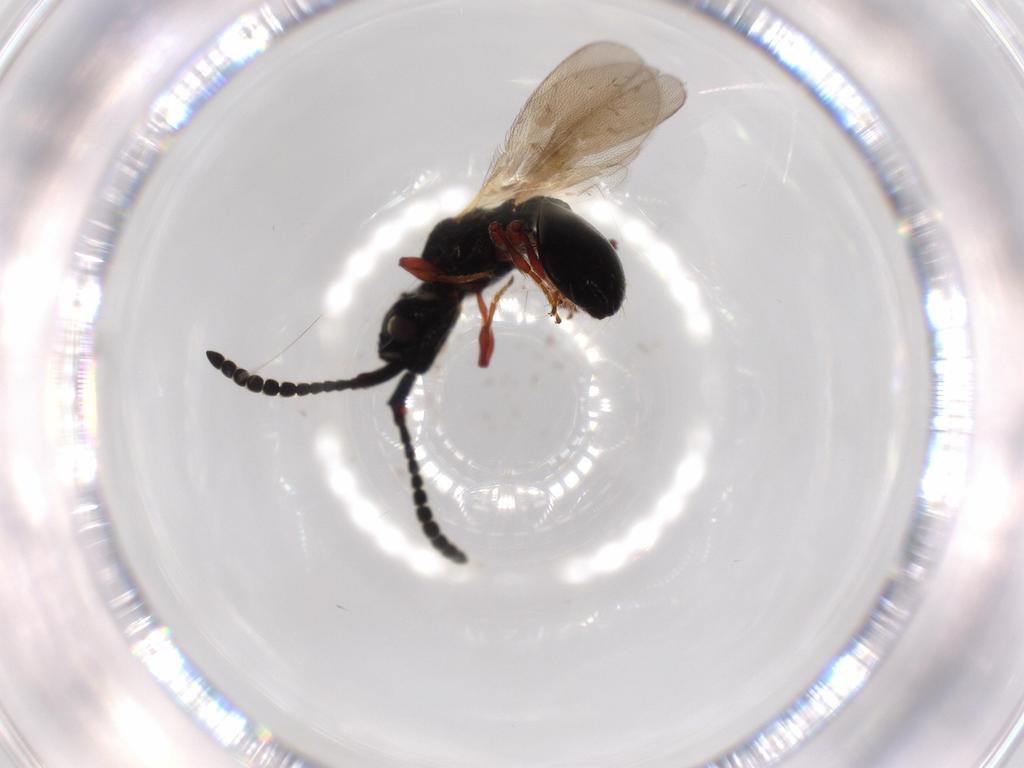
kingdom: Animalia
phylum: Arthropoda
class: Insecta
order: Hymenoptera
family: Diapriidae
